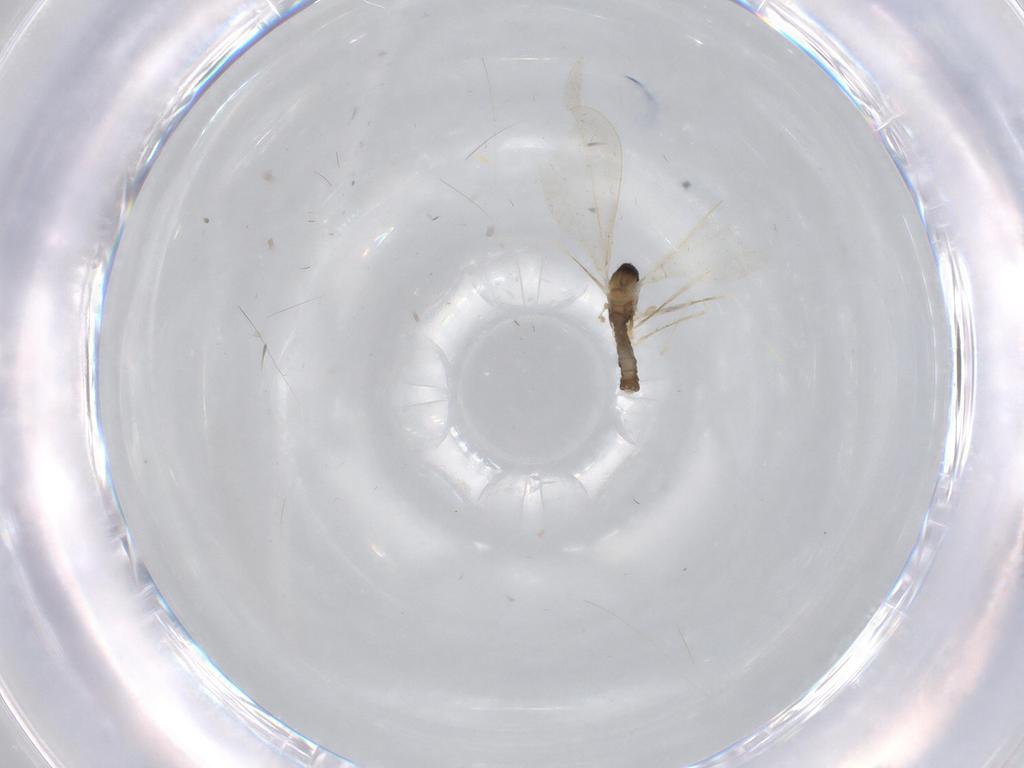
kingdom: Animalia
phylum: Arthropoda
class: Insecta
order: Diptera
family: Cecidomyiidae
